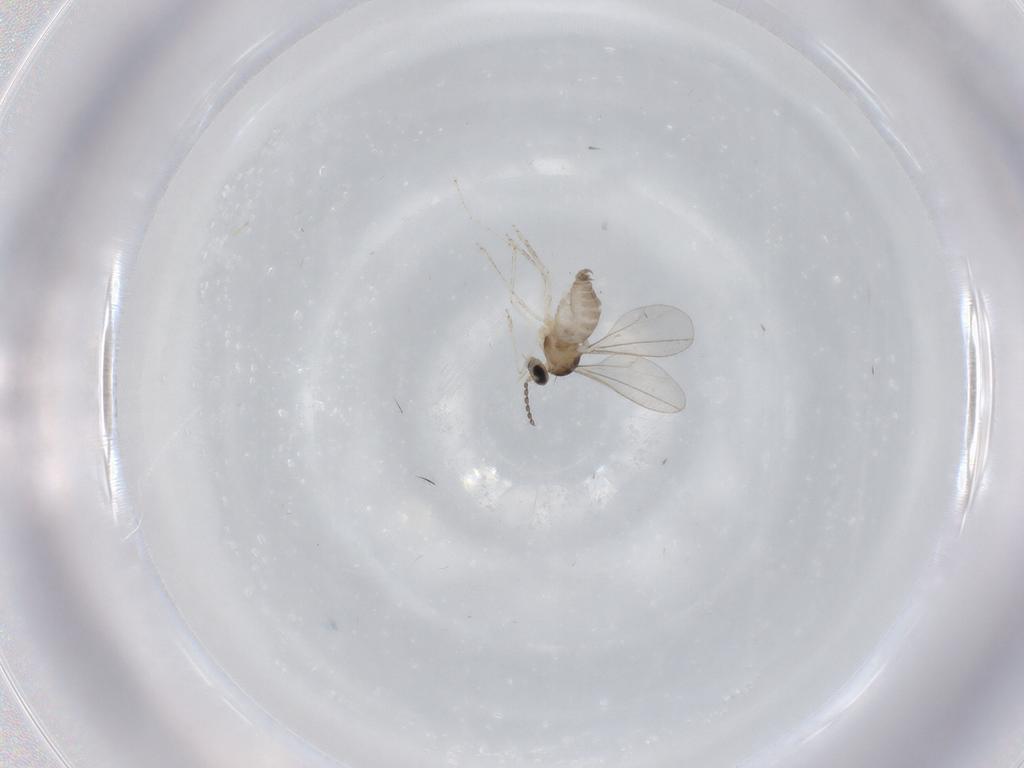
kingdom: Animalia
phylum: Arthropoda
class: Insecta
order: Diptera
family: Cecidomyiidae
